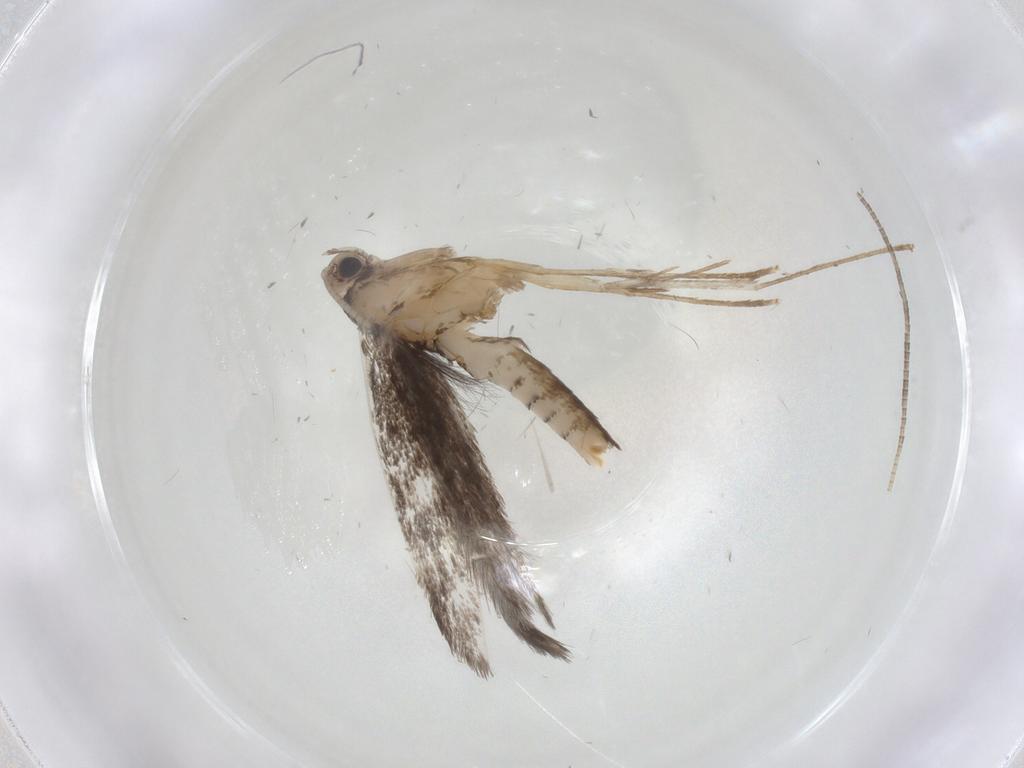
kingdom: Animalia
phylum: Arthropoda
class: Insecta
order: Lepidoptera
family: Gracillariidae
